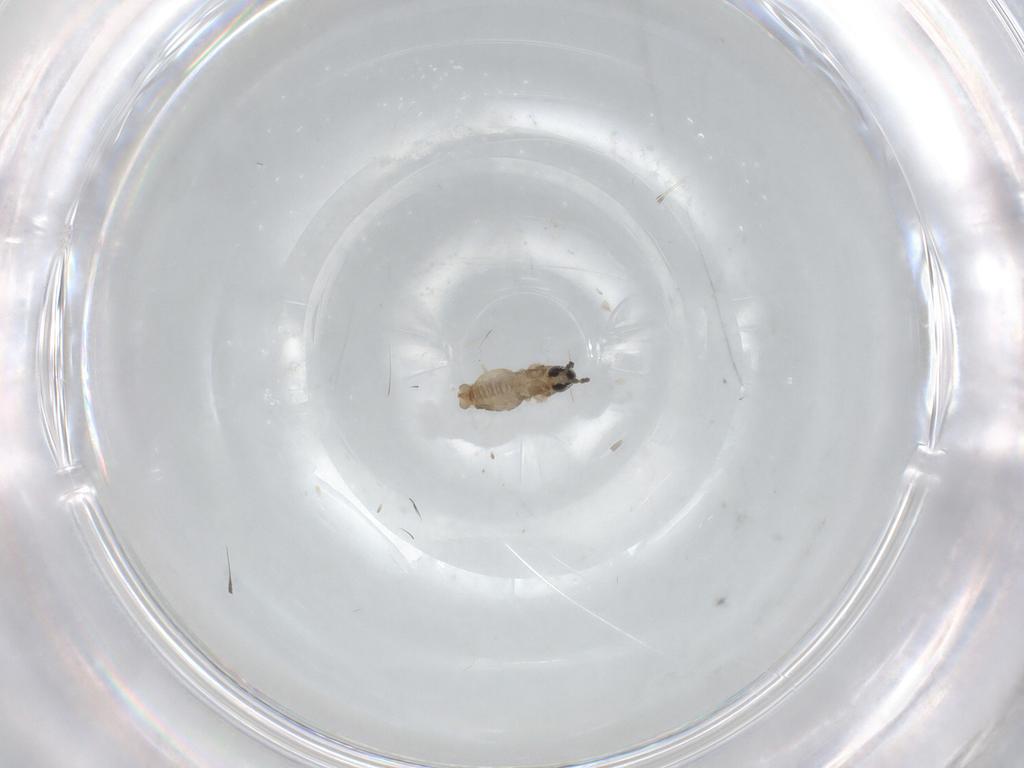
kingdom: Animalia
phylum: Arthropoda
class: Insecta
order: Diptera
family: Cecidomyiidae
